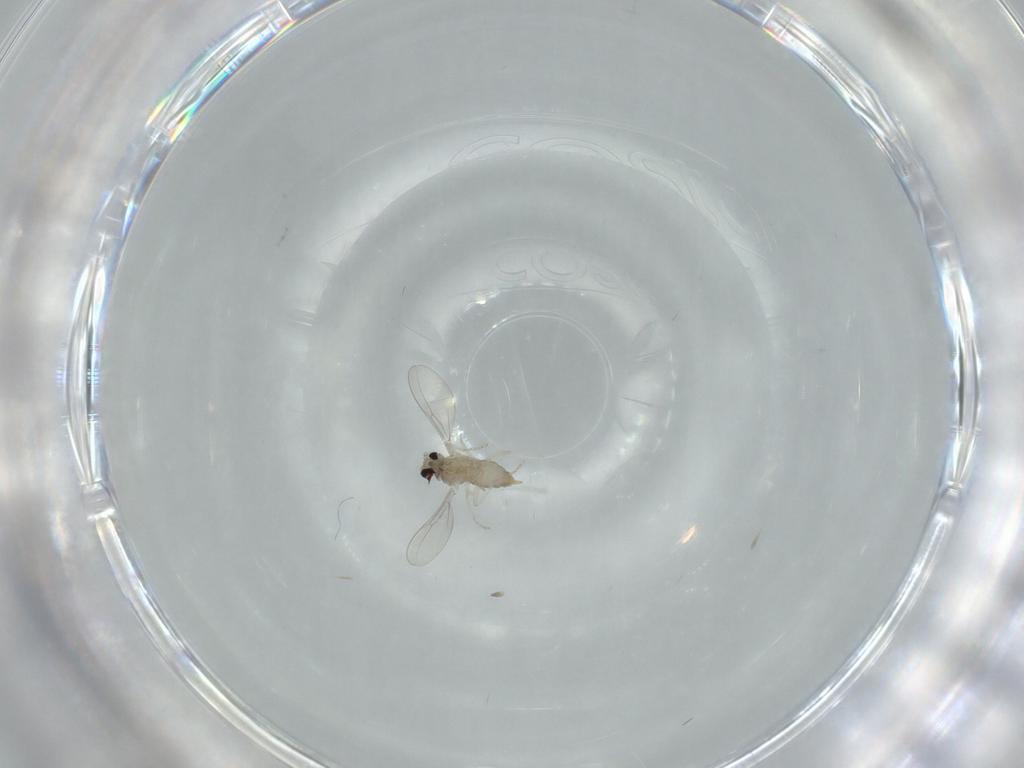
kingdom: Animalia
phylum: Arthropoda
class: Insecta
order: Diptera
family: Cecidomyiidae
